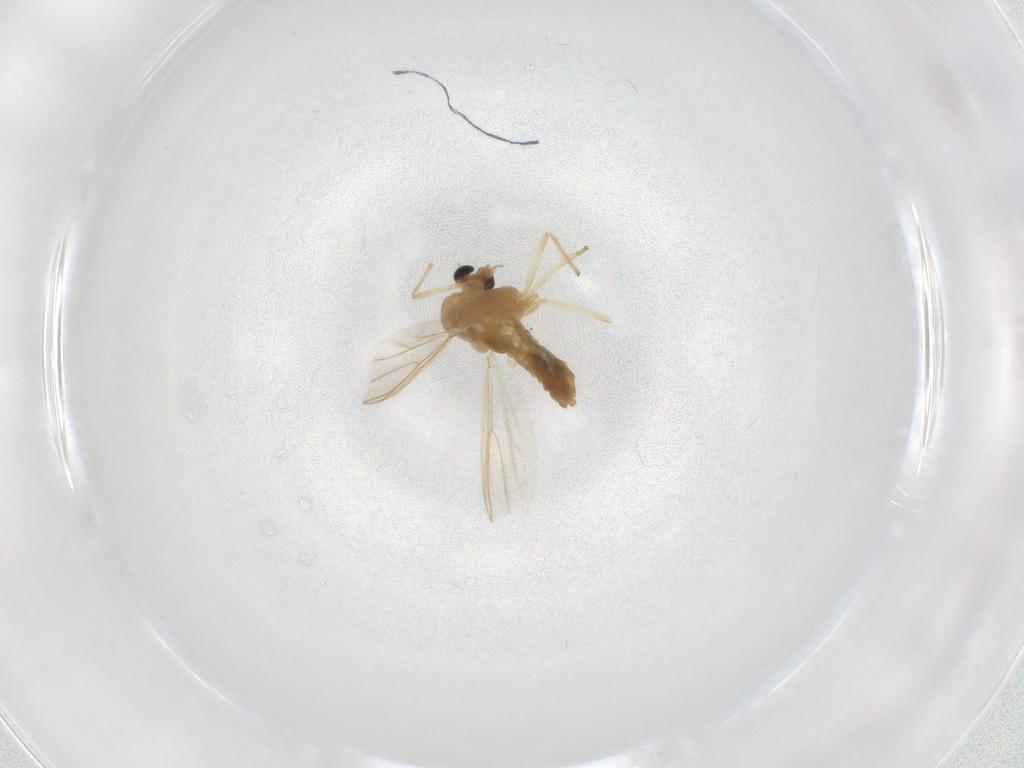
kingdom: Animalia
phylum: Arthropoda
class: Insecta
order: Diptera
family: Chironomidae
